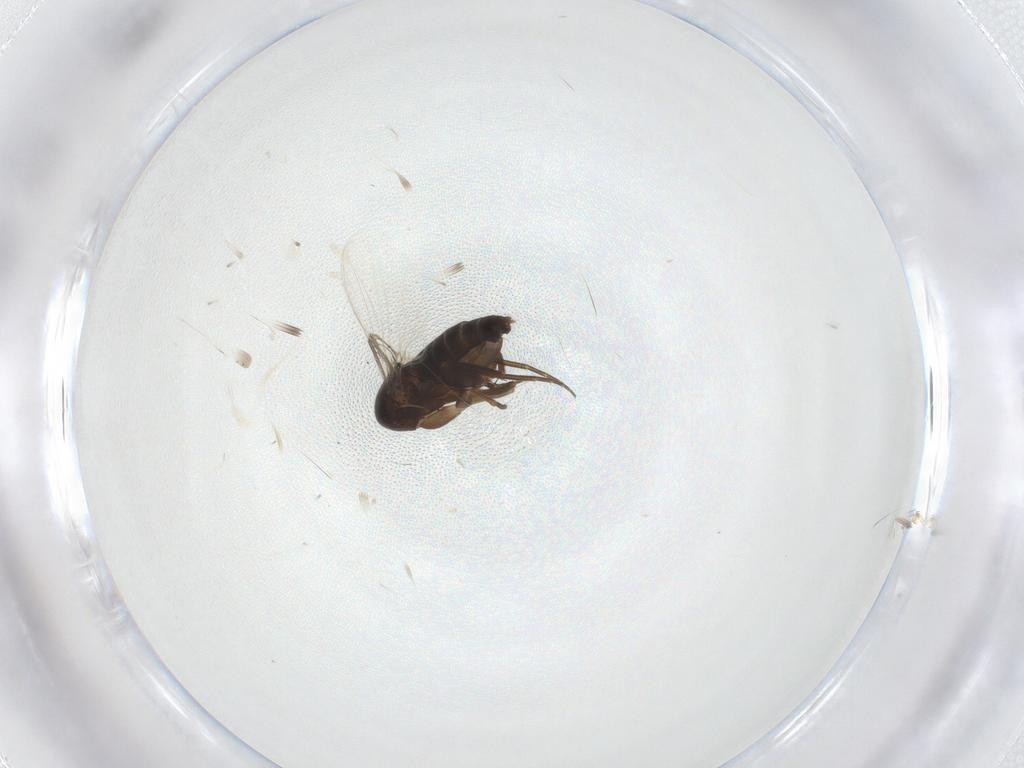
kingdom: Animalia
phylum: Arthropoda
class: Insecta
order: Diptera
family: Phoridae
